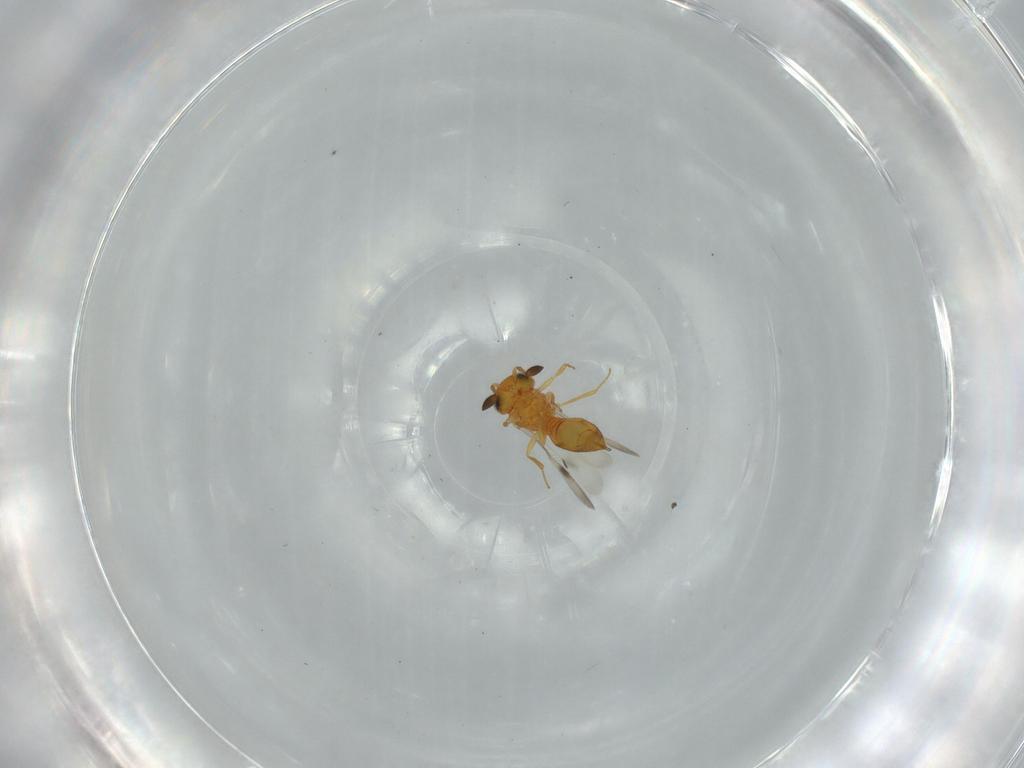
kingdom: Animalia
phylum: Arthropoda
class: Insecta
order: Hymenoptera
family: Scelionidae
